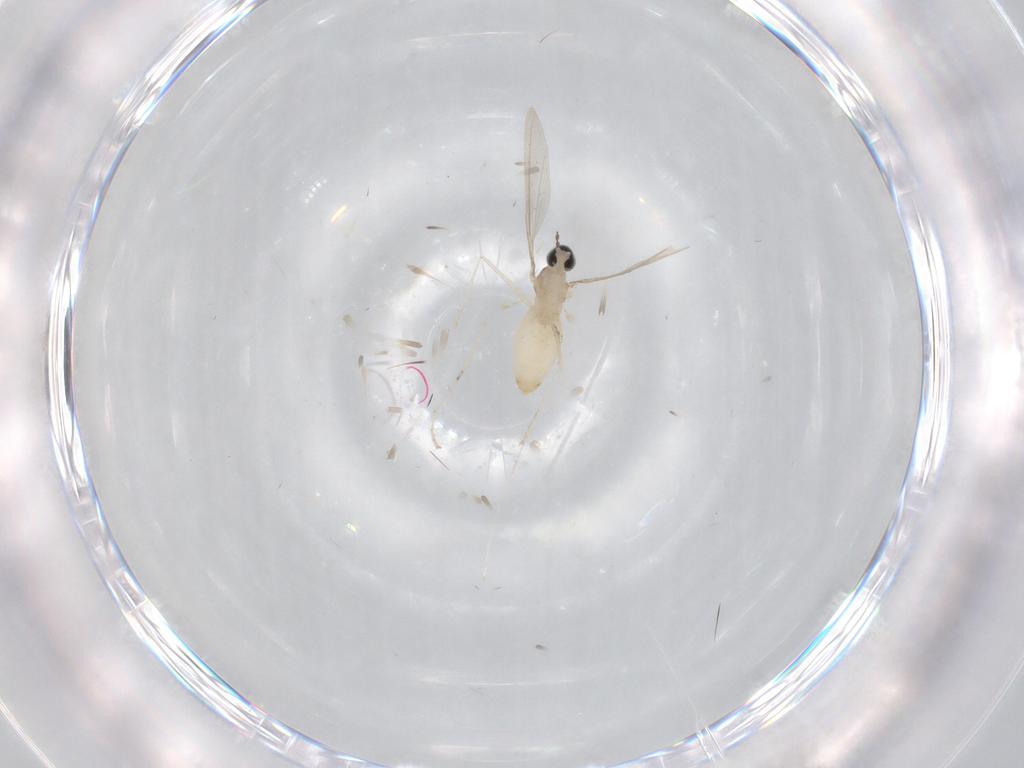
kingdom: Animalia
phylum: Arthropoda
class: Insecta
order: Diptera
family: Cecidomyiidae
